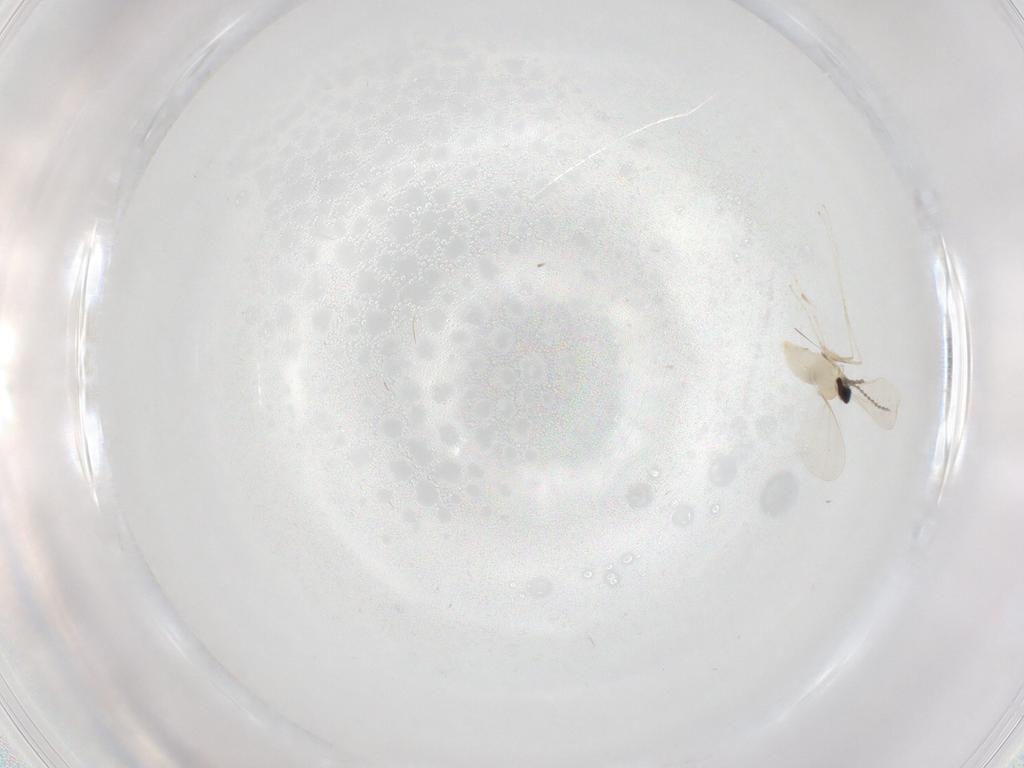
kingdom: Animalia
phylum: Arthropoda
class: Insecta
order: Diptera
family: Cecidomyiidae
